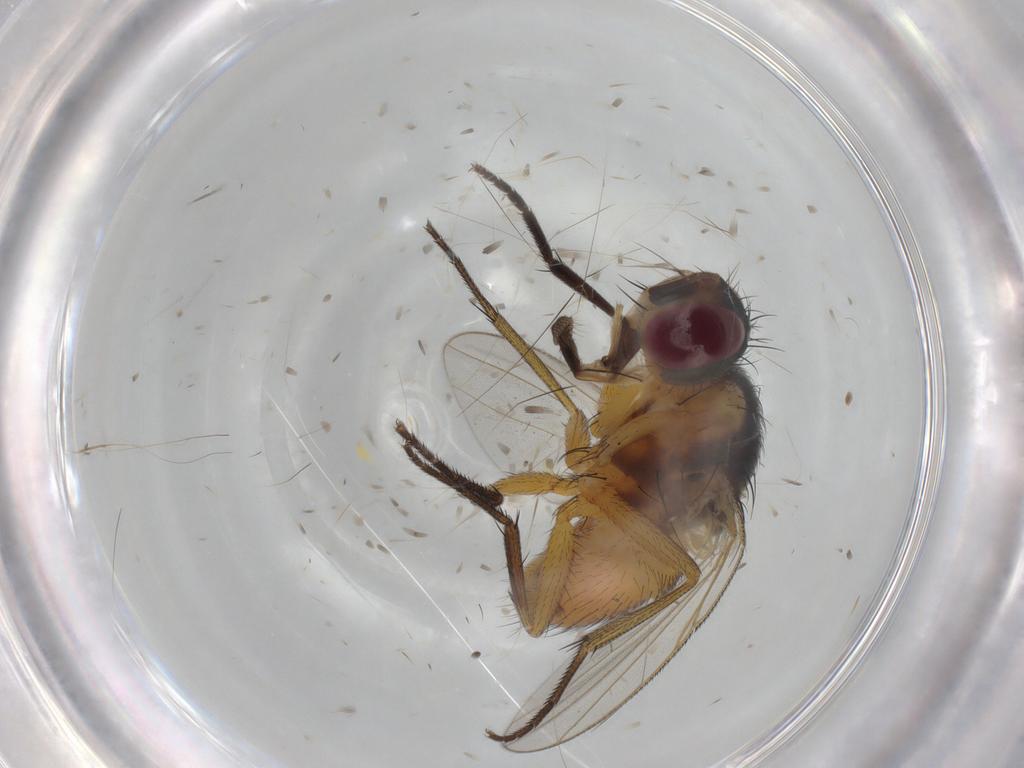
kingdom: Animalia
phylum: Arthropoda
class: Insecta
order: Diptera
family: Muscidae
